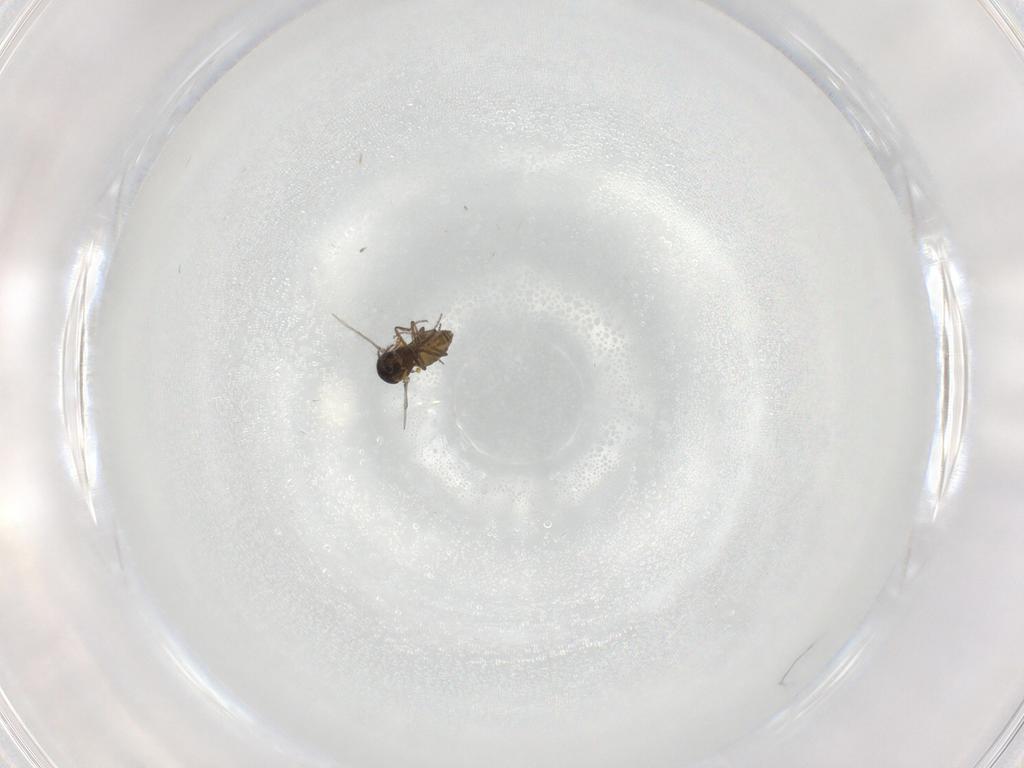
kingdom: Animalia
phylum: Arthropoda
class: Insecta
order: Diptera
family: Ceratopogonidae
